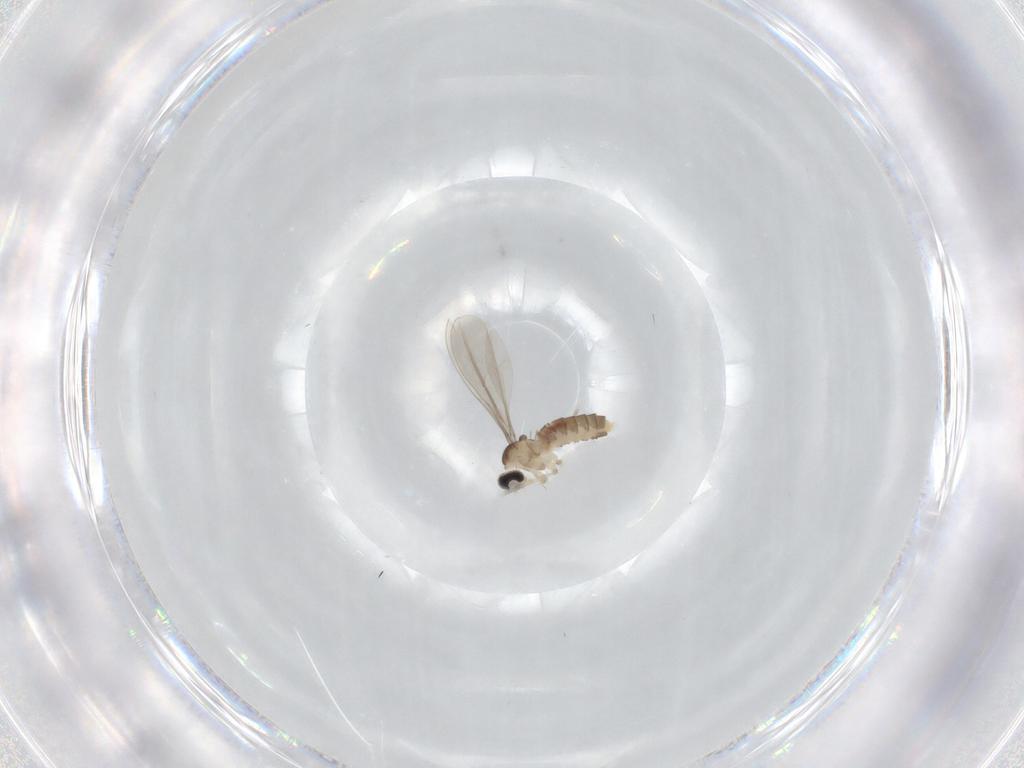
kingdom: Animalia
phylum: Arthropoda
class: Insecta
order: Diptera
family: Cecidomyiidae
